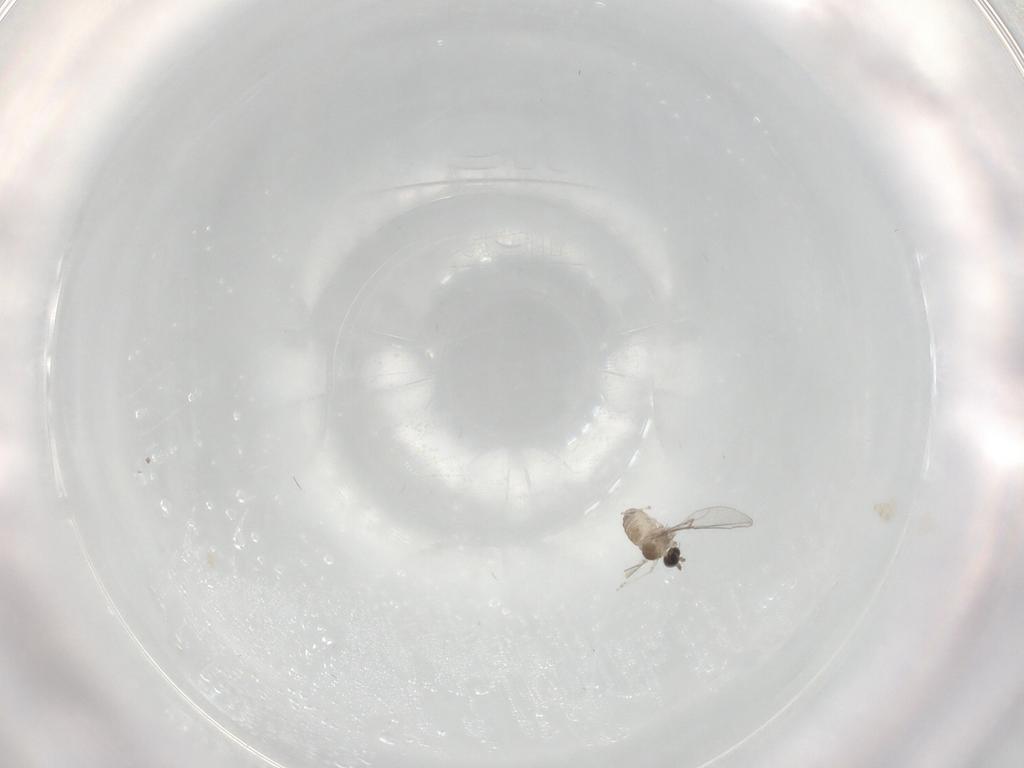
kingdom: Animalia
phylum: Arthropoda
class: Insecta
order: Diptera
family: Cecidomyiidae
